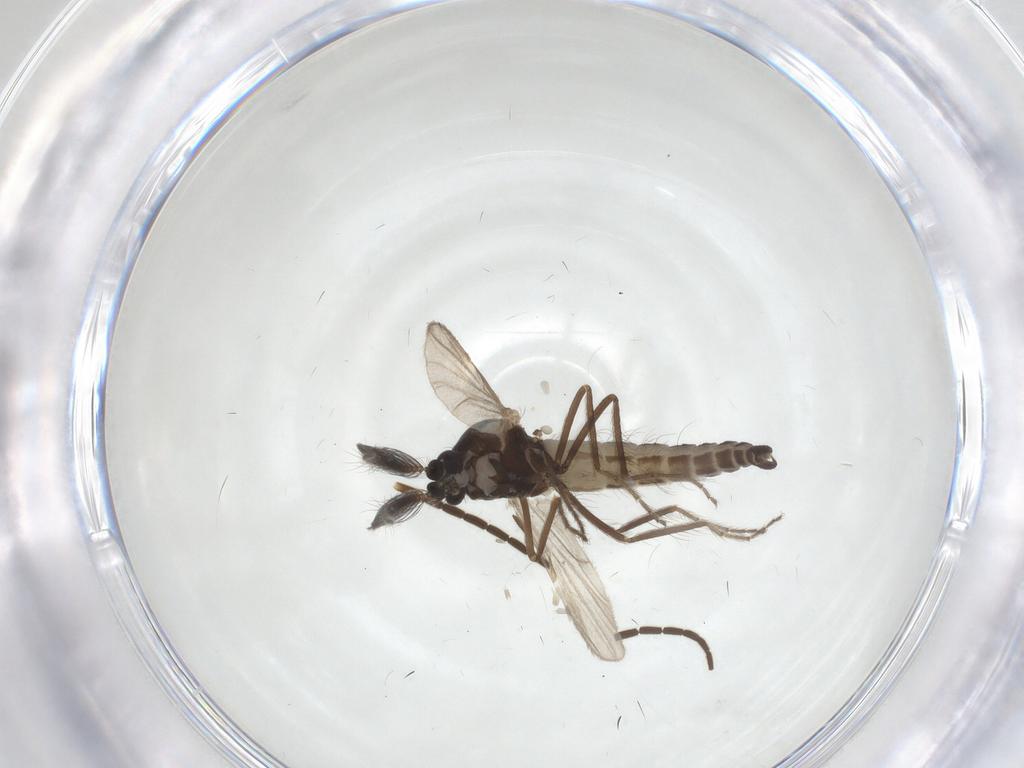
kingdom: Animalia
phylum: Arthropoda
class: Insecta
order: Diptera
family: Ceratopogonidae
